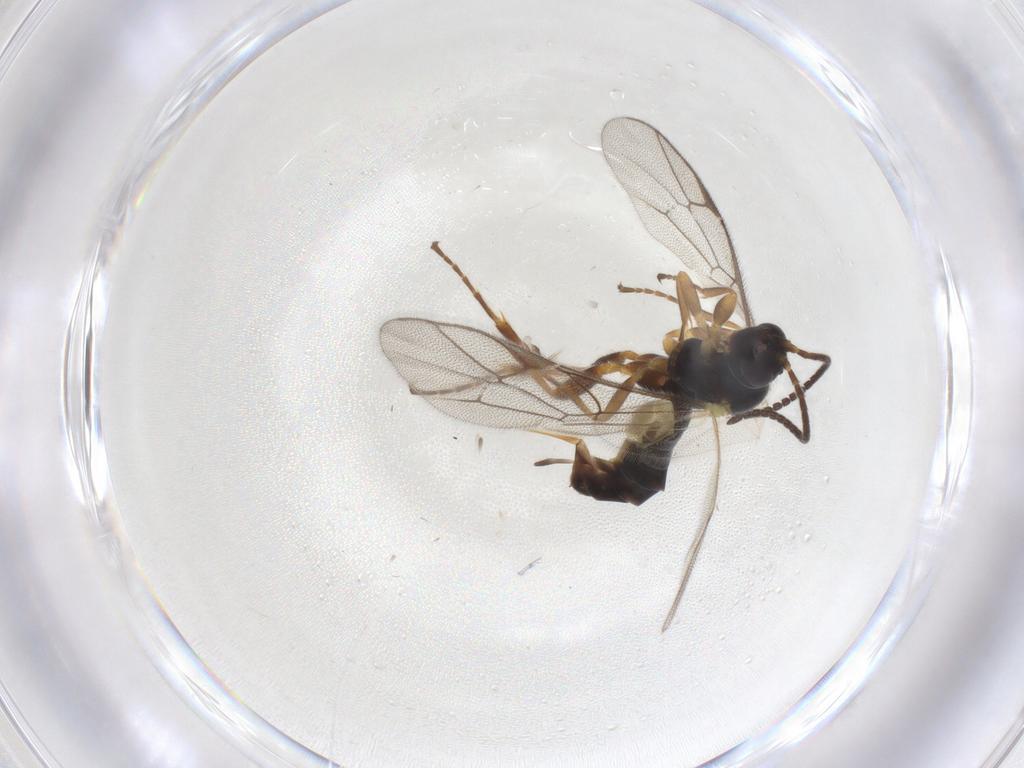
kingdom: Animalia
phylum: Arthropoda
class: Insecta
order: Hymenoptera
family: Ichneumonidae
